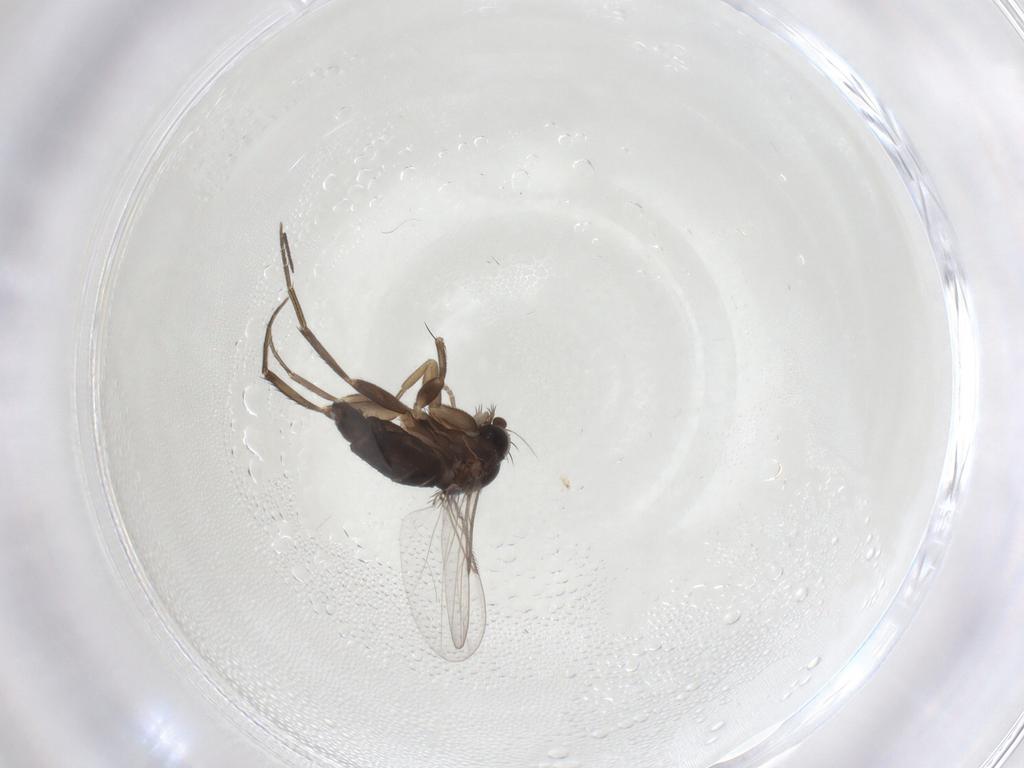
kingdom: Animalia
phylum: Arthropoda
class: Insecta
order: Diptera
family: Phoridae
